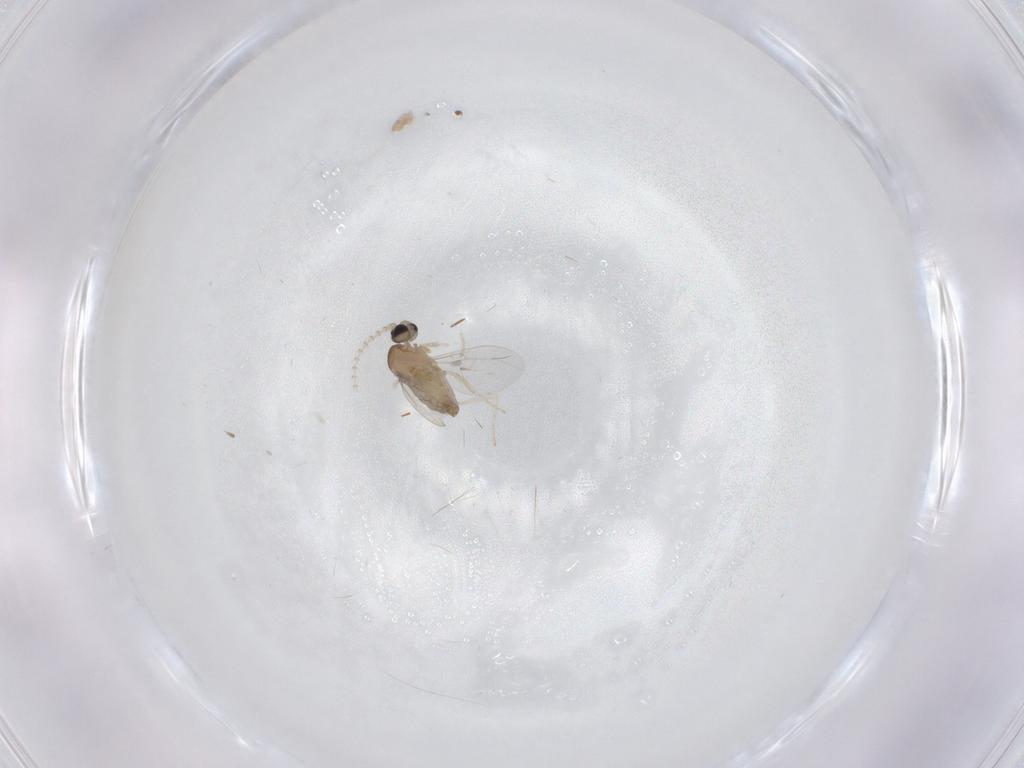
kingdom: Animalia
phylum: Arthropoda
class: Insecta
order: Diptera
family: Cecidomyiidae
